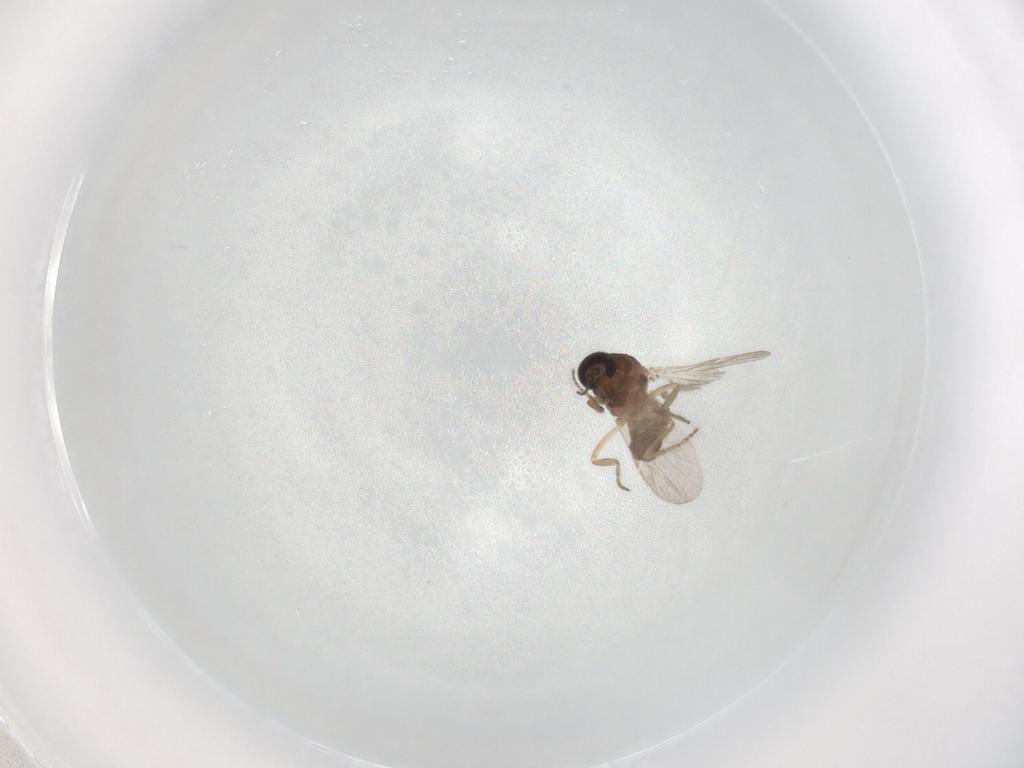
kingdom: Animalia
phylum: Arthropoda
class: Insecta
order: Diptera
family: Ceratopogonidae
